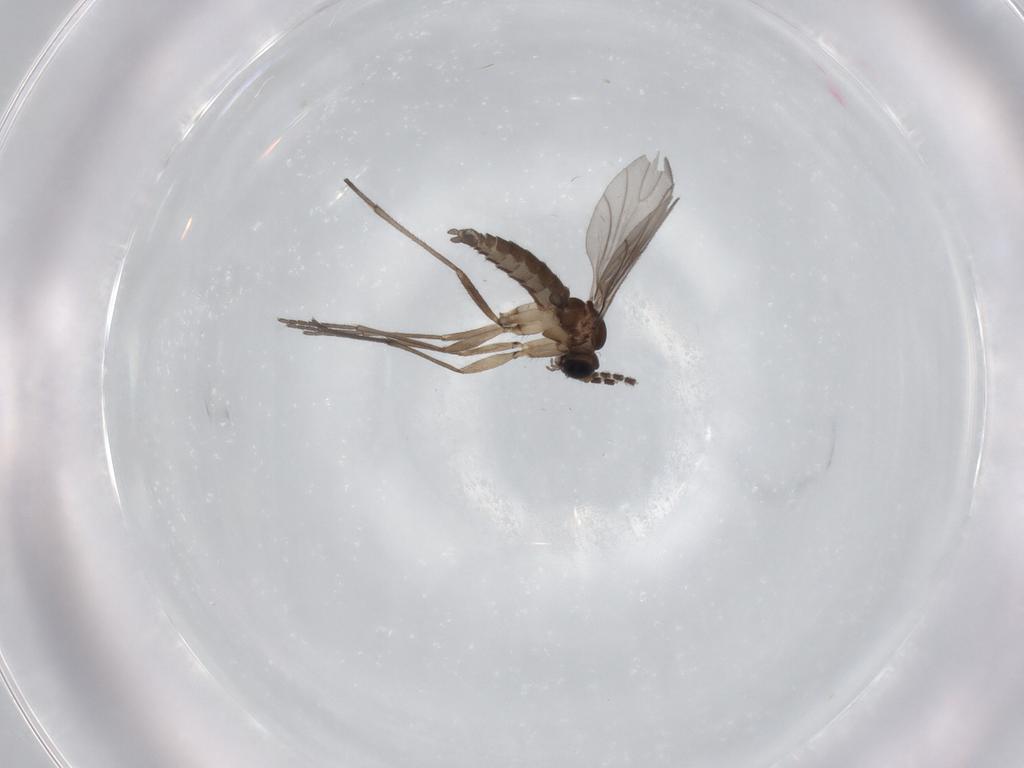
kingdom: Animalia
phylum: Arthropoda
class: Insecta
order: Diptera
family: Sciaridae
